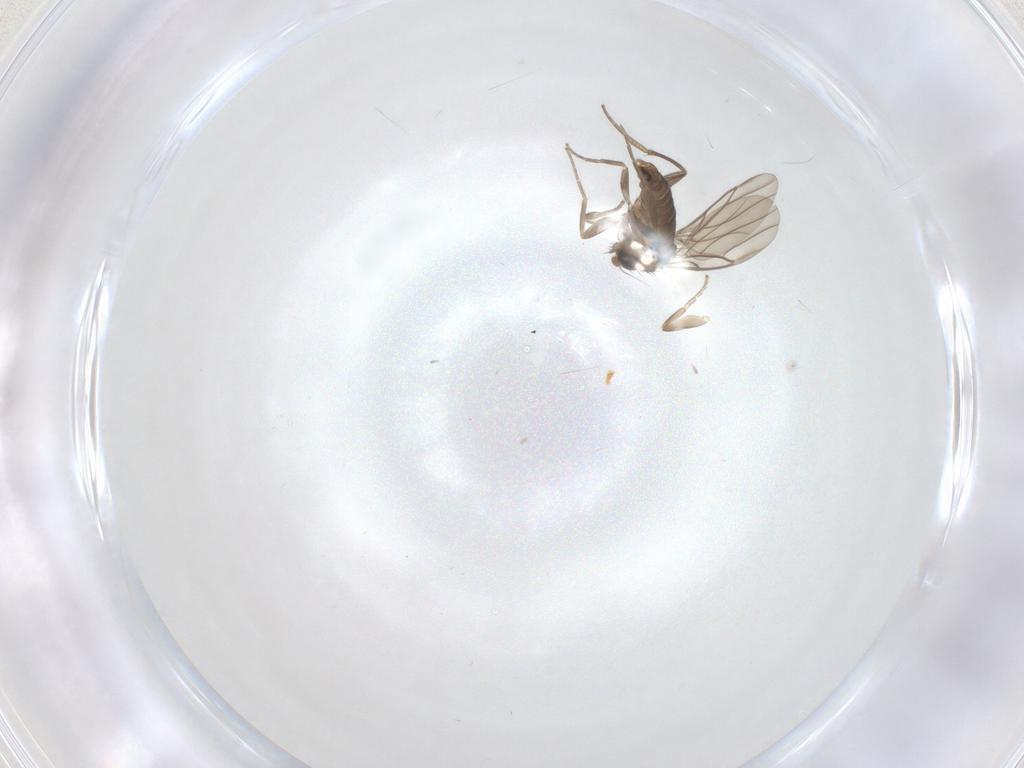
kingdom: Animalia
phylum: Arthropoda
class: Insecta
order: Diptera
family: Phoridae
